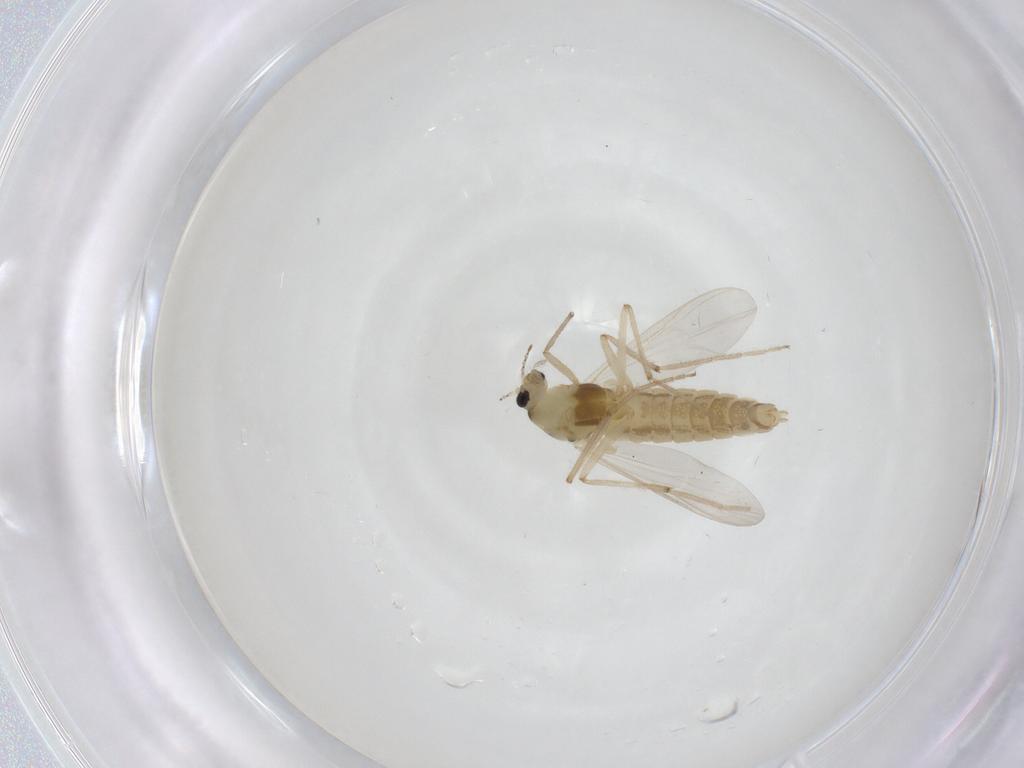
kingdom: Animalia
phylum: Arthropoda
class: Insecta
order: Diptera
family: Chironomidae
